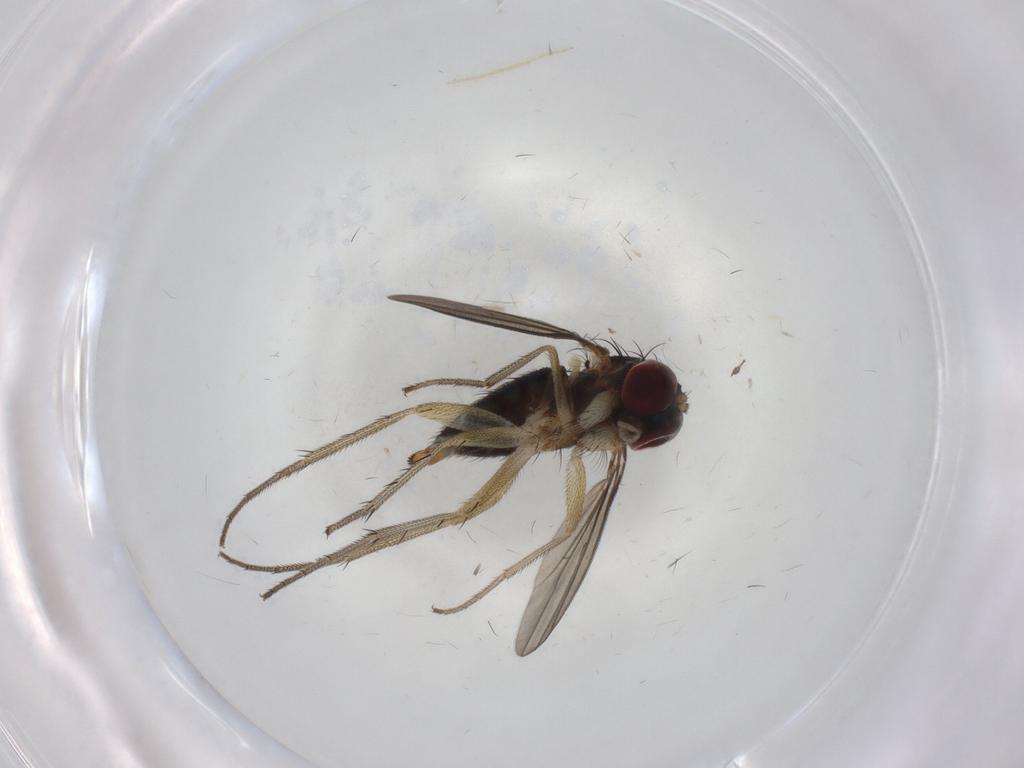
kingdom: Animalia
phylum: Arthropoda
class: Insecta
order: Diptera
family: Dolichopodidae
